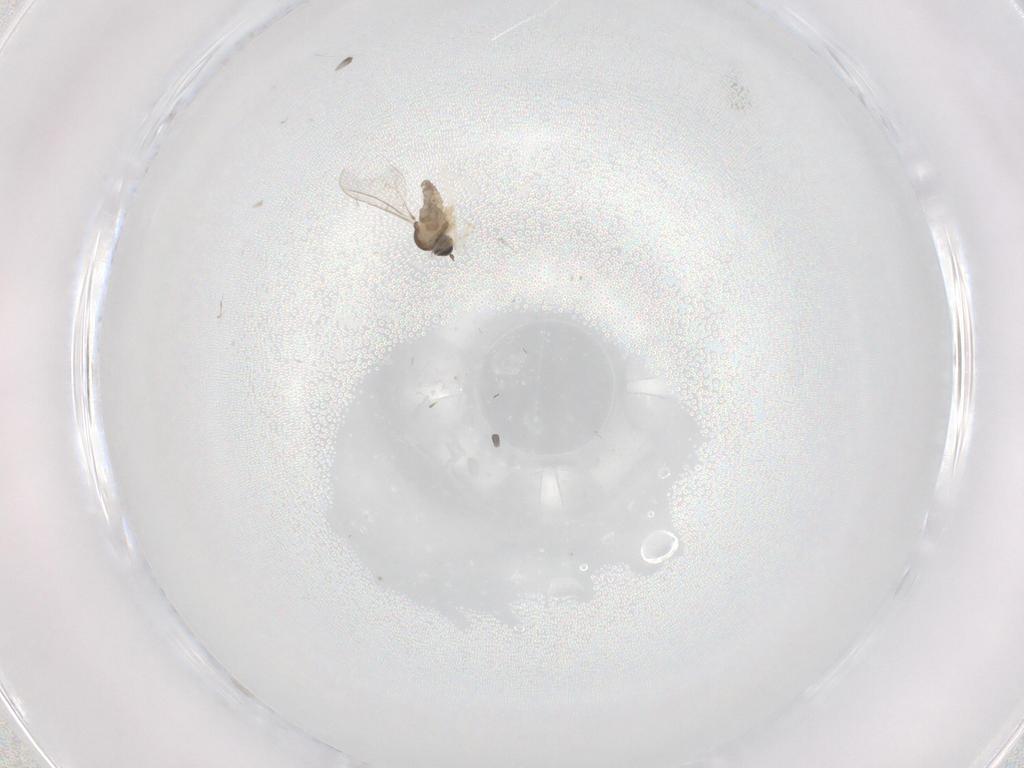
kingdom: Animalia
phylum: Arthropoda
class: Insecta
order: Diptera
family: Cecidomyiidae
